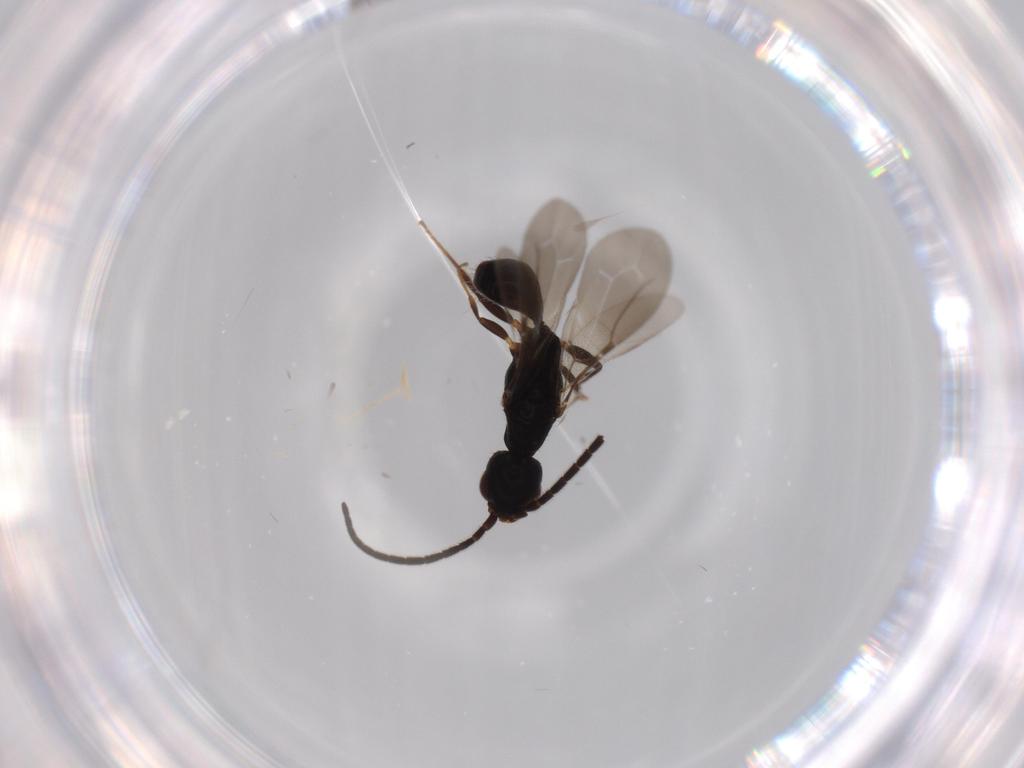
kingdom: Animalia
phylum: Arthropoda
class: Insecta
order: Hymenoptera
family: Bethylidae
